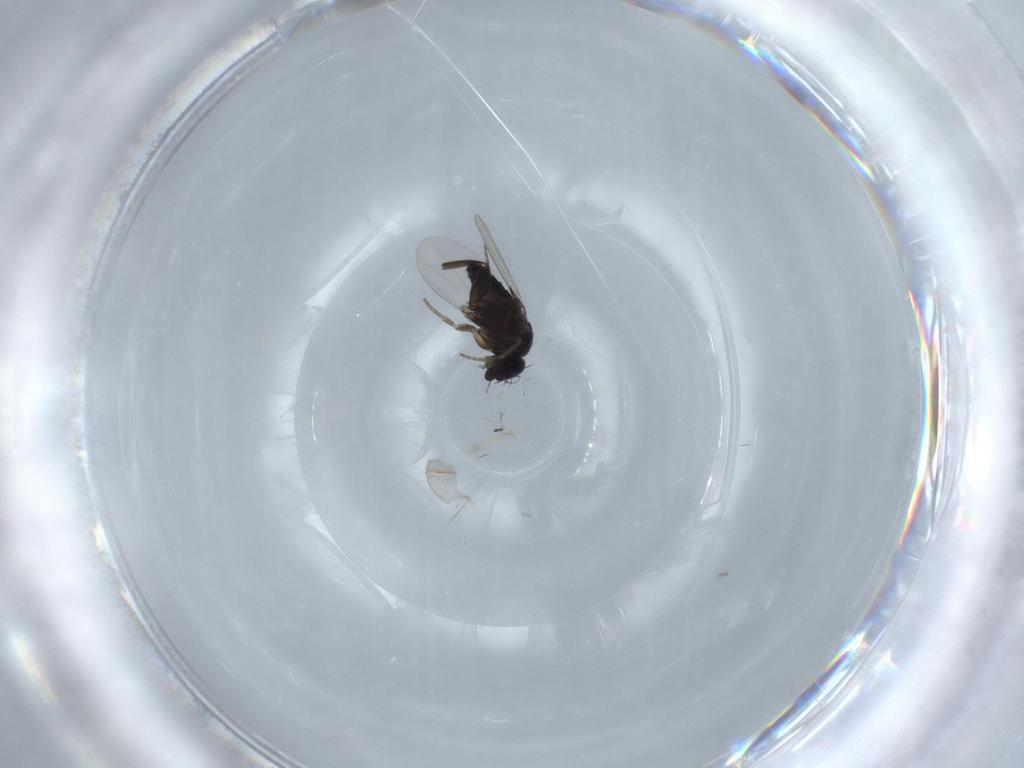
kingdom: Animalia
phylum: Arthropoda
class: Insecta
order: Diptera
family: Phoridae
